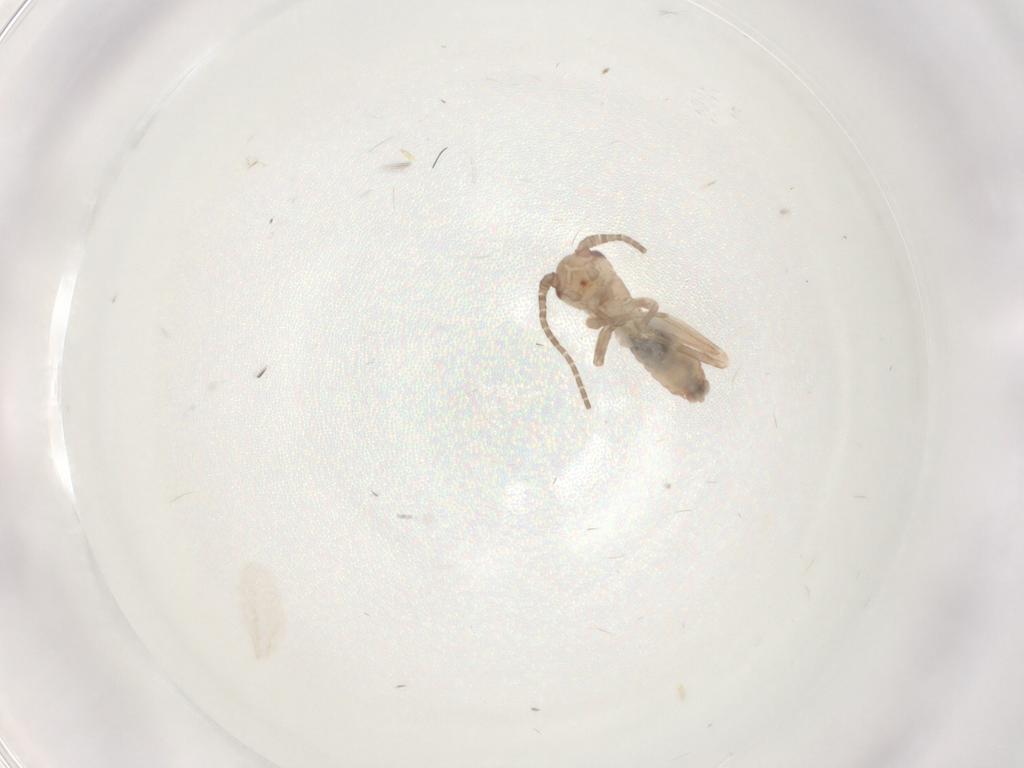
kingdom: Animalia
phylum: Arthropoda
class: Insecta
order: Orthoptera
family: Mogoplistidae
